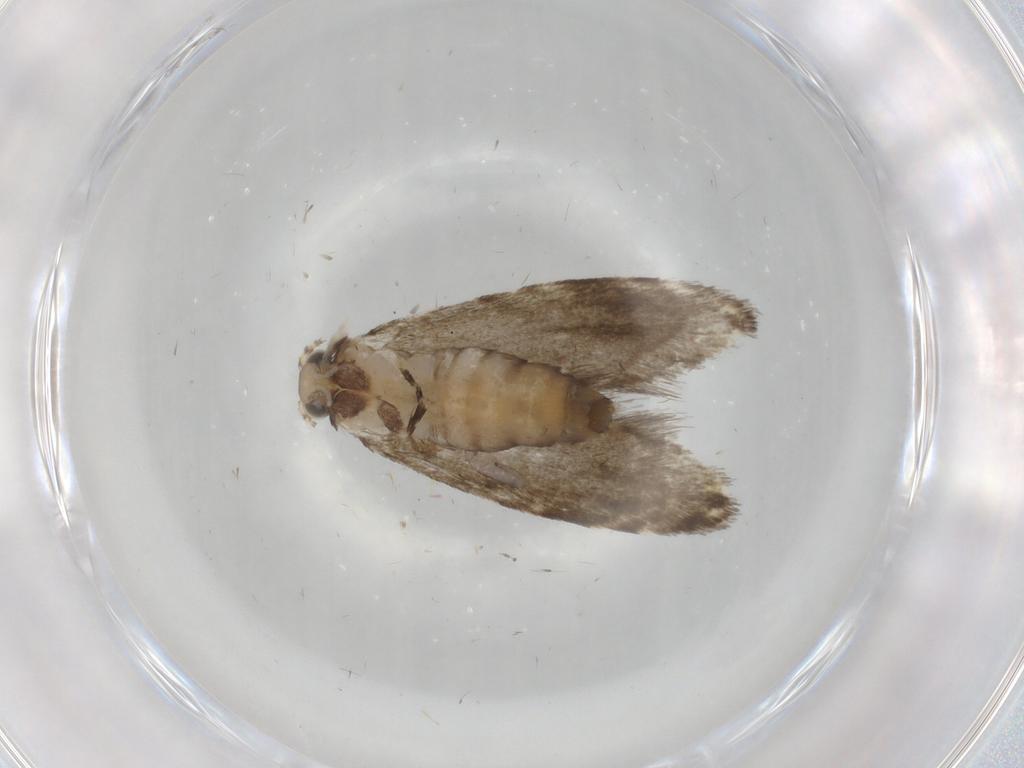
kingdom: Animalia
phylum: Arthropoda
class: Insecta
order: Lepidoptera
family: Tineidae
